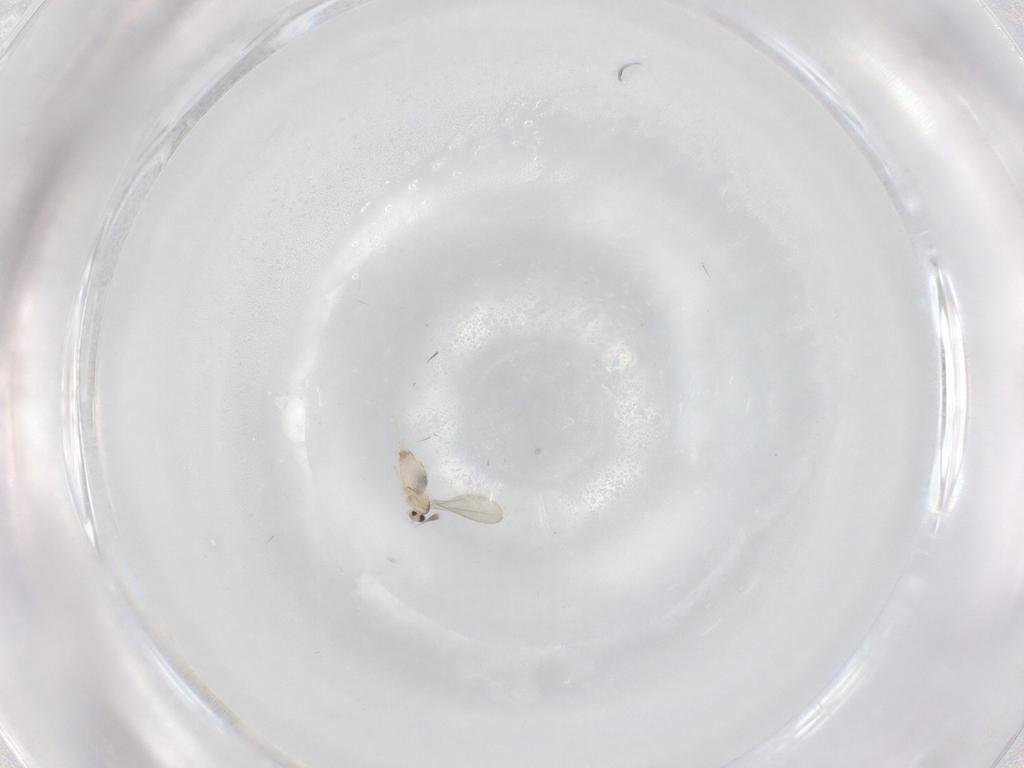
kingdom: Animalia
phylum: Arthropoda
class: Insecta
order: Diptera
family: Cecidomyiidae
